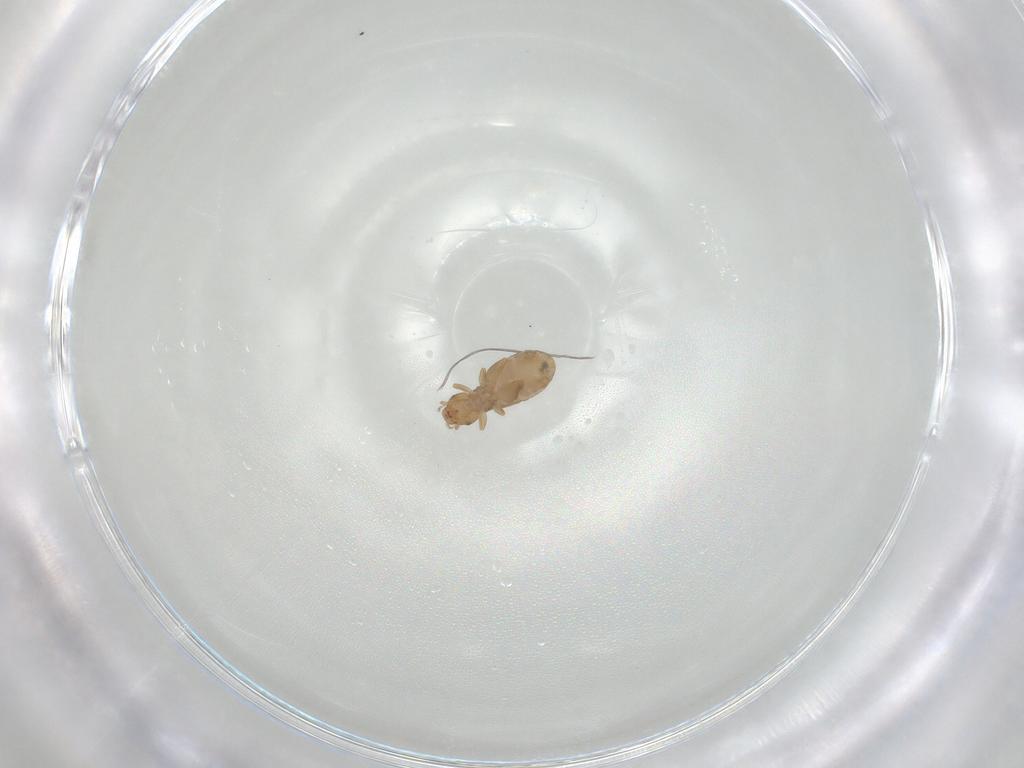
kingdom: Animalia
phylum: Arthropoda
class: Insecta
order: Psocodea
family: Liposcelididae
